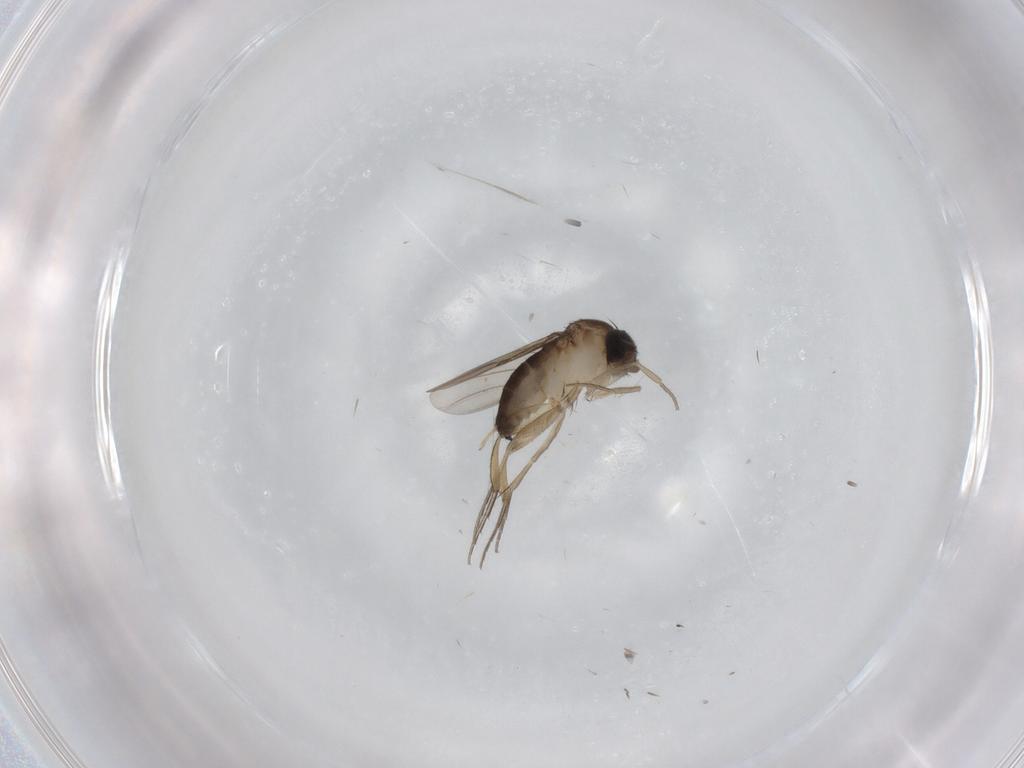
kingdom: Animalia
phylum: Arthropoda
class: Insecta
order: Diptera
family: Phoridae
